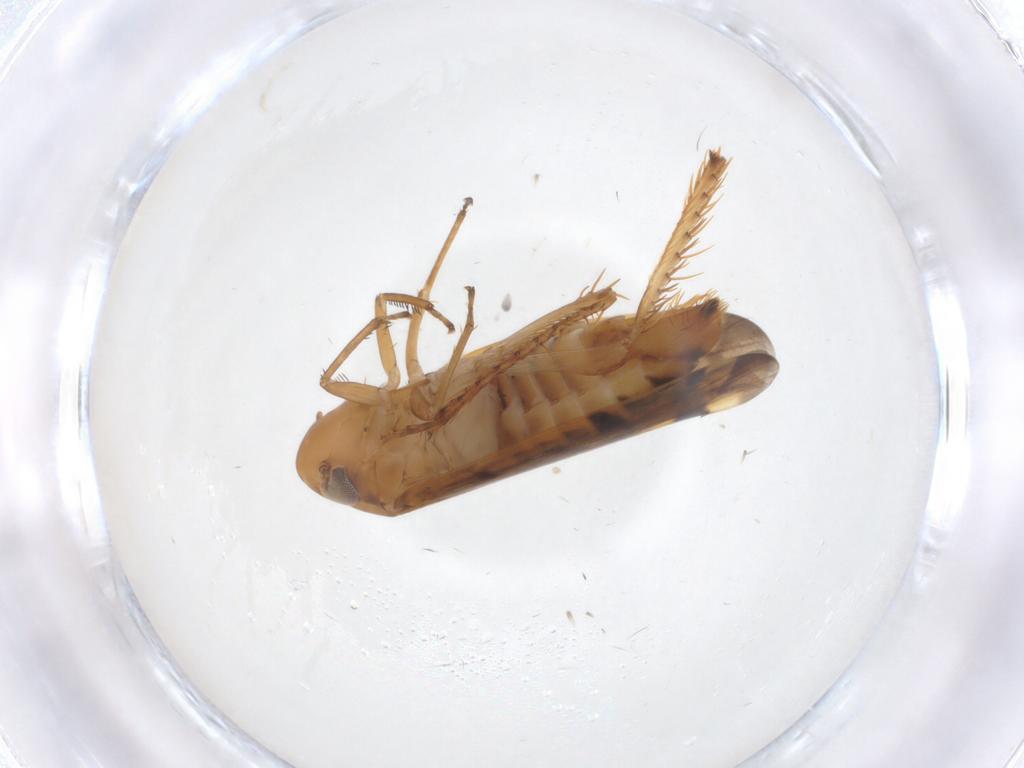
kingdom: Animalia
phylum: Arthropoda
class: Insecta
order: Hemiptera
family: Cicadellidae
